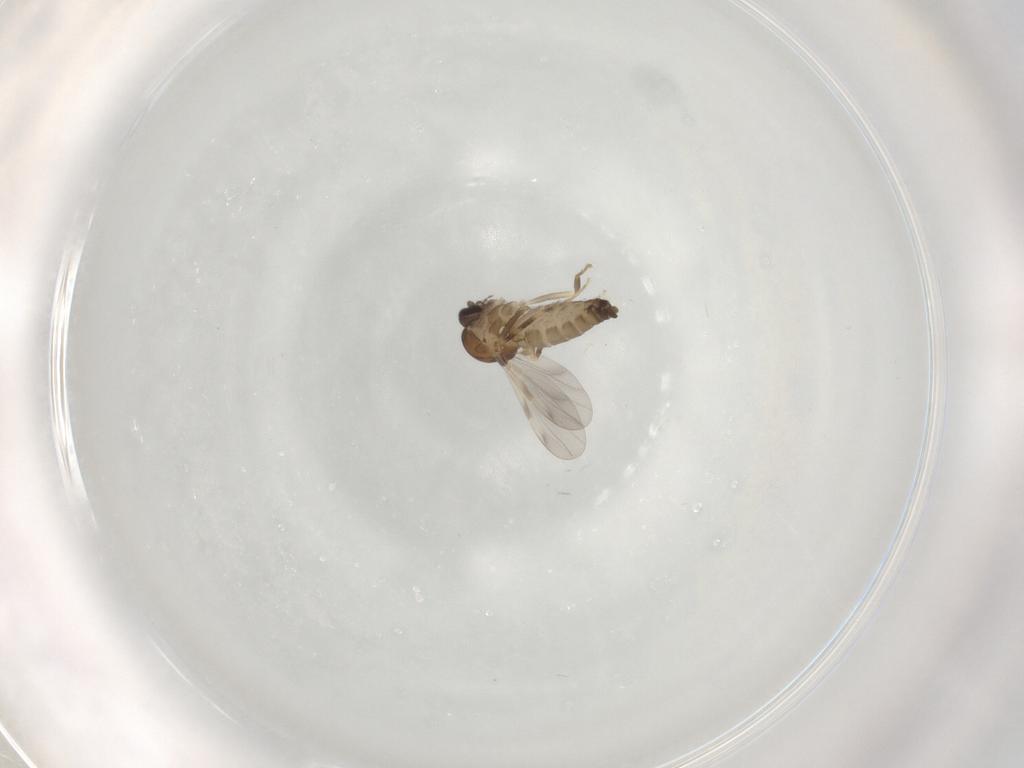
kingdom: Animalia
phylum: Arthropoda
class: Insecta
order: Diptera
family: Ceratopogonidae
